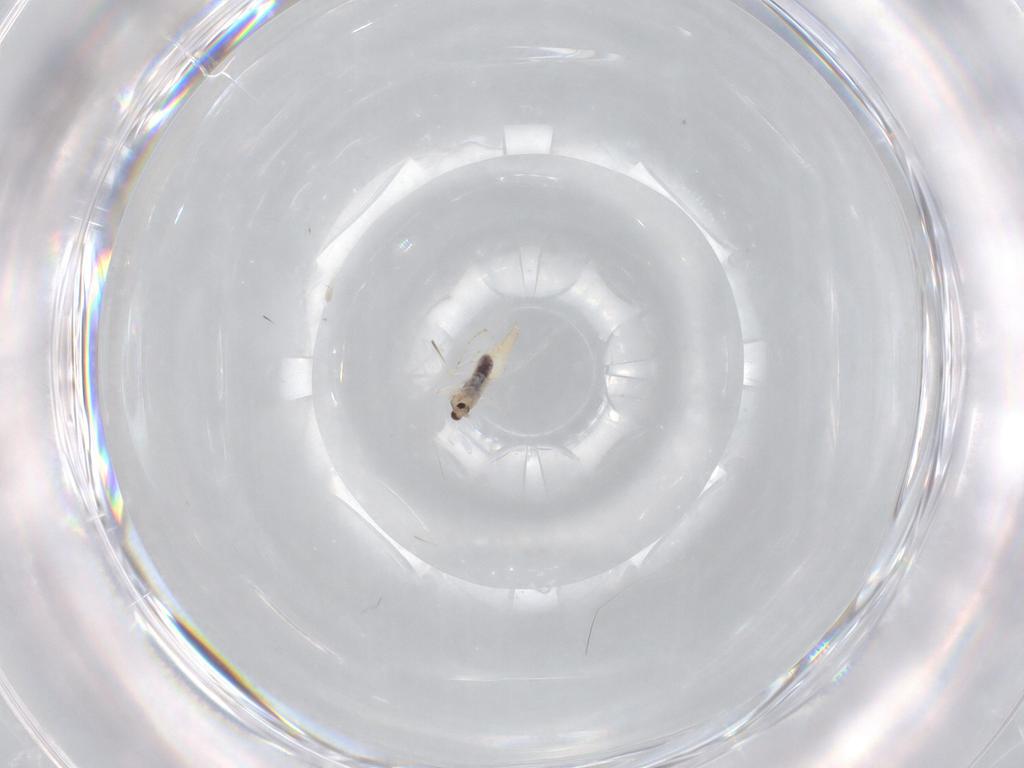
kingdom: Animalia
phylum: Arthropoda
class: Insecta
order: Diptera
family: Cecidomyiidae
